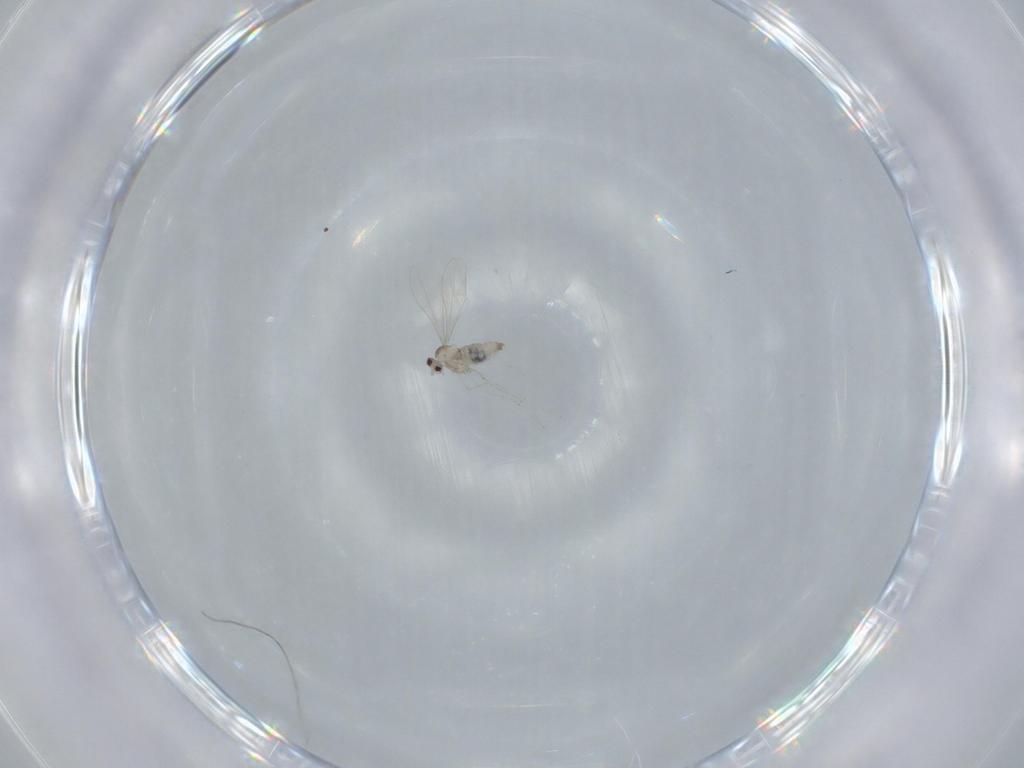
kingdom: Animalia
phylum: Arthropoda
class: Insecta
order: Diptera
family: Cecidomyiidae
